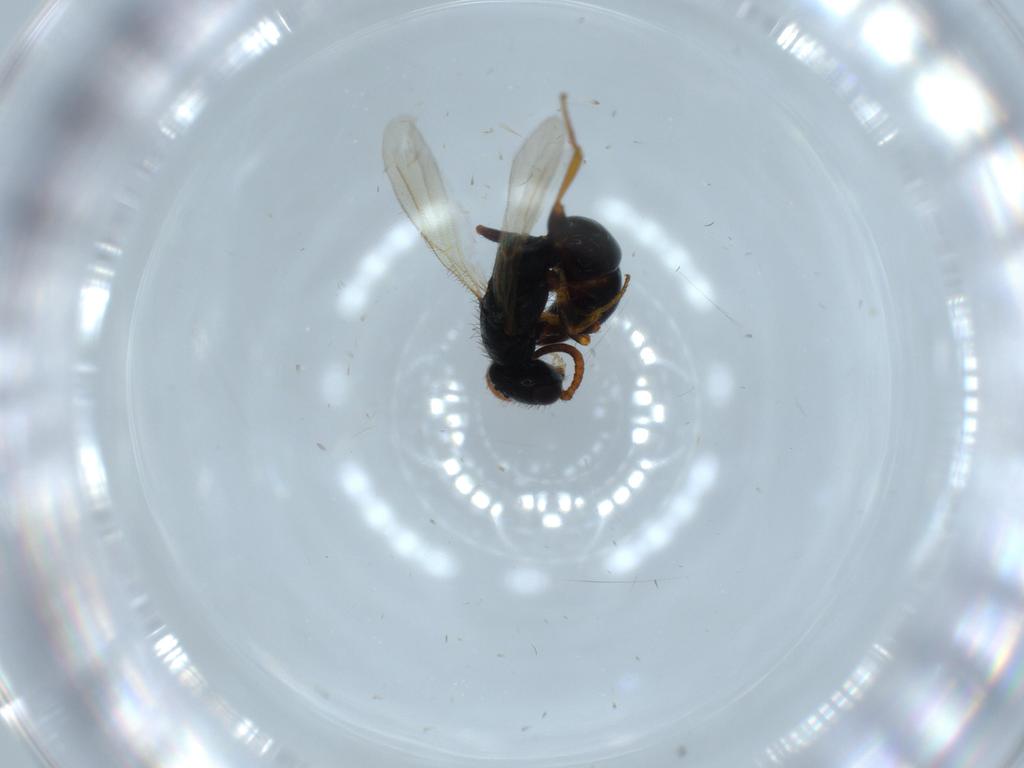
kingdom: Animalia
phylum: Arthropoda
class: Insecta
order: Hymenoptera
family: Bethylidae
